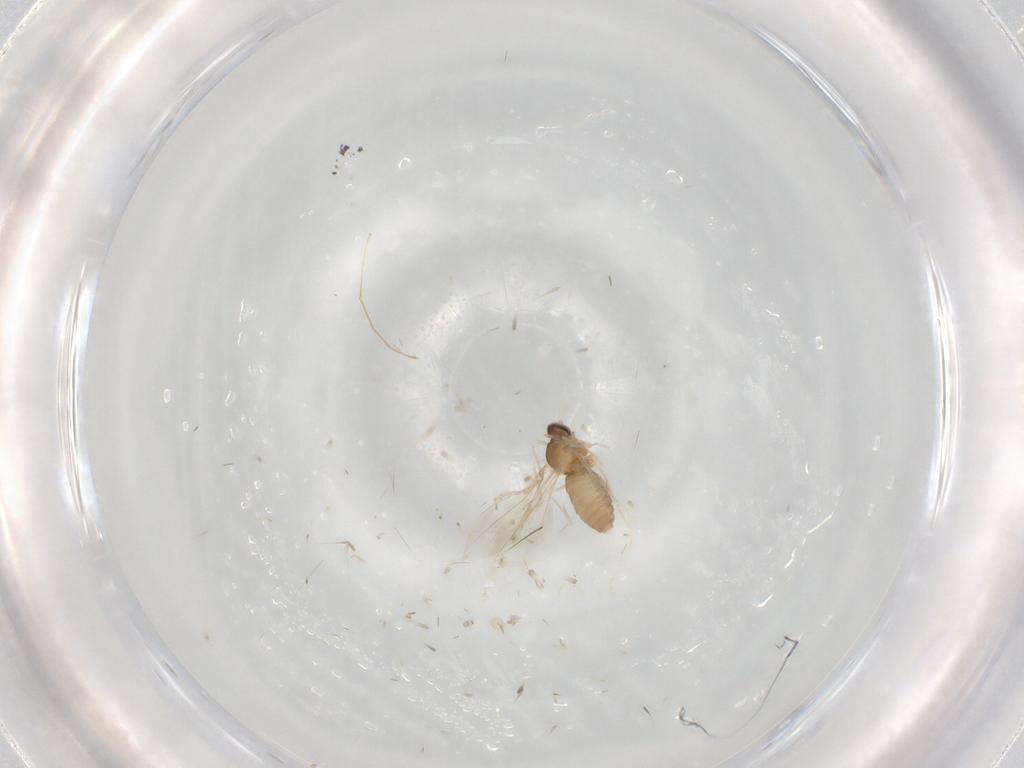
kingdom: Animalia
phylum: Arthropoda
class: Insecta
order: Diptera
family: Cecidomyiidae
